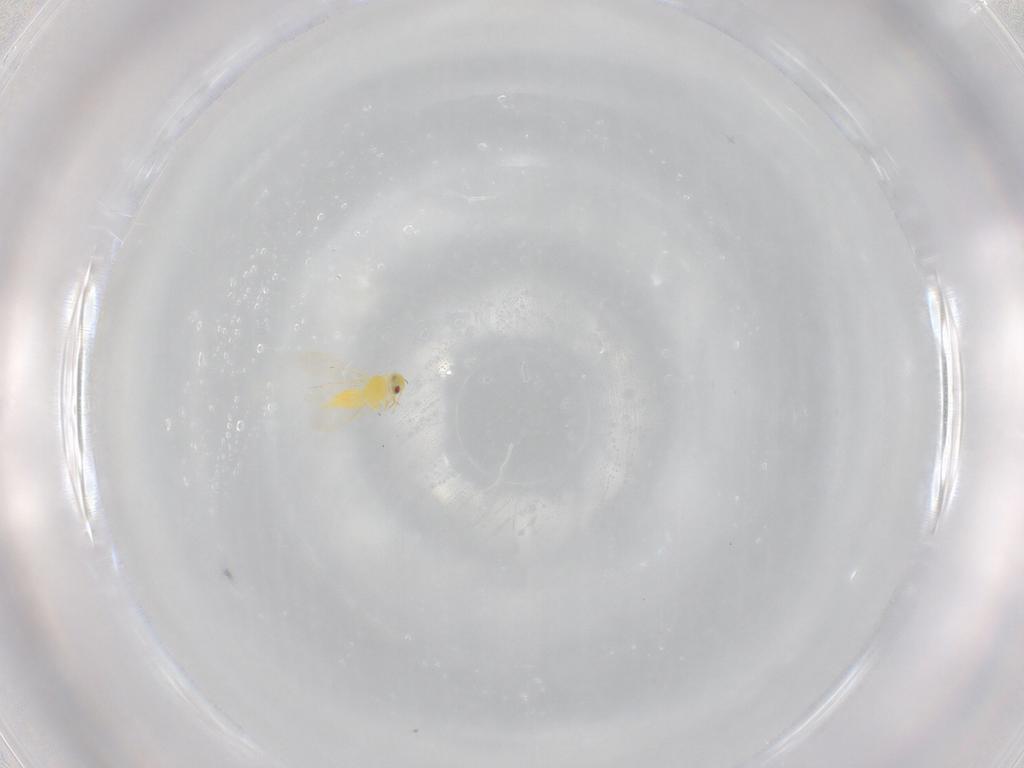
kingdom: Animalia
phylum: Arthropoda
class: Insecta
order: Hemiptera
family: Aleyrodidae
